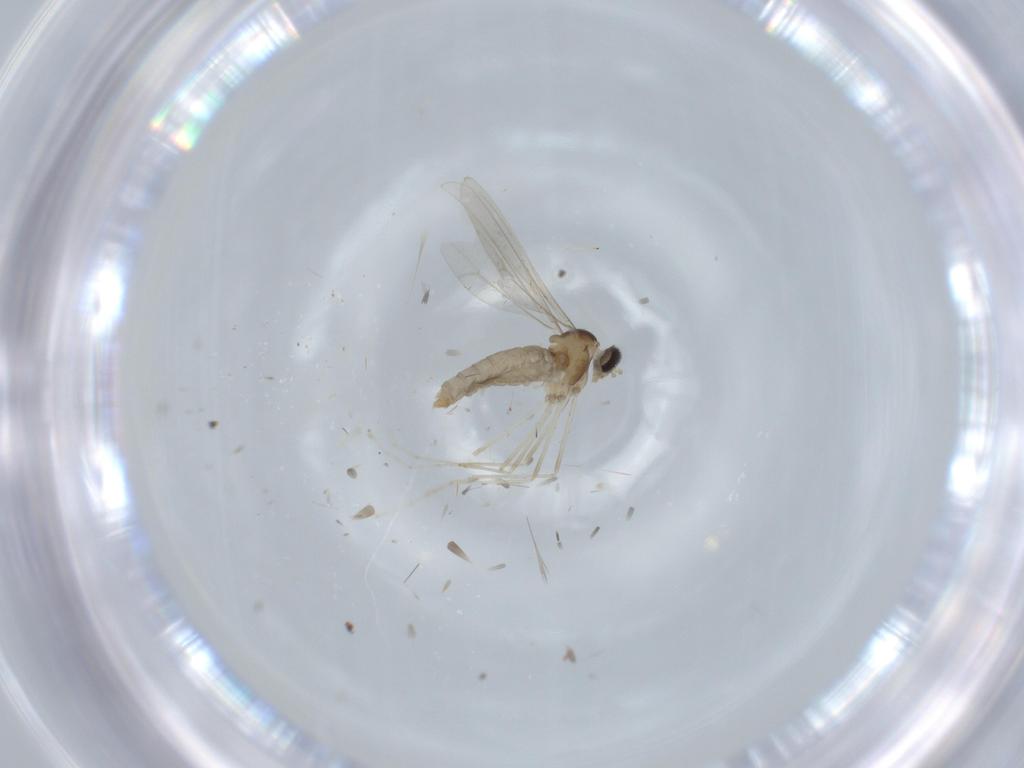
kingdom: Animalia
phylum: Arthropoda
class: Insecta
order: Diptera
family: Cecidomyiidae
